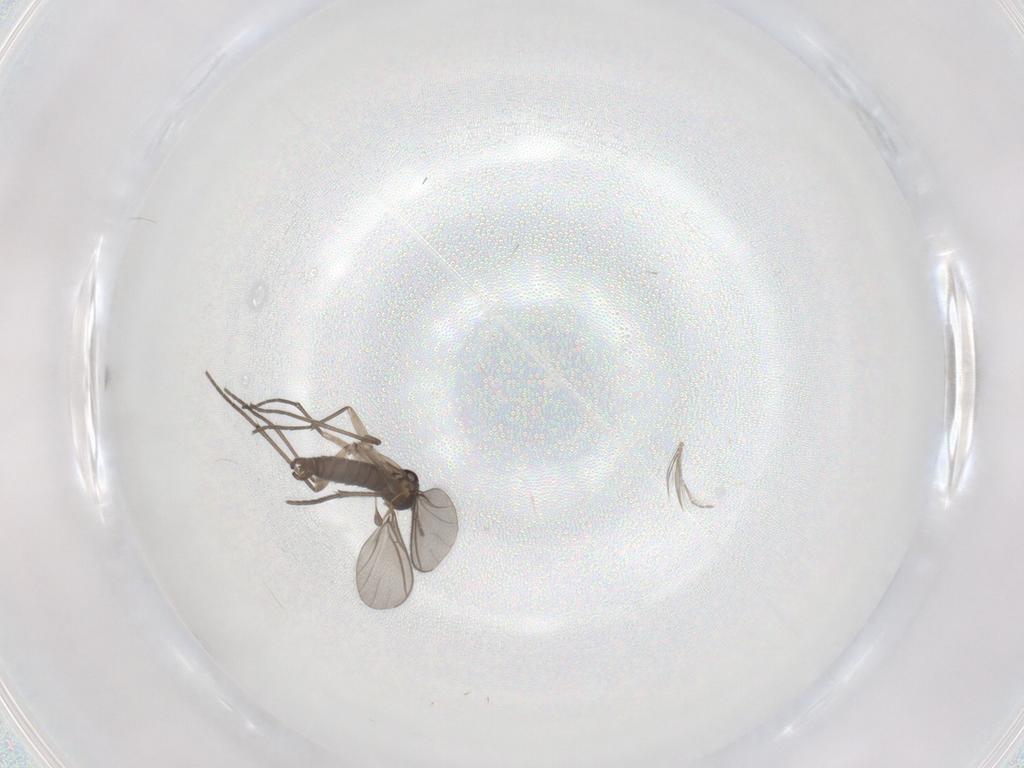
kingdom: Animalia
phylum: Arthropoda
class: Insecta
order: Diptera
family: Sciaridae
